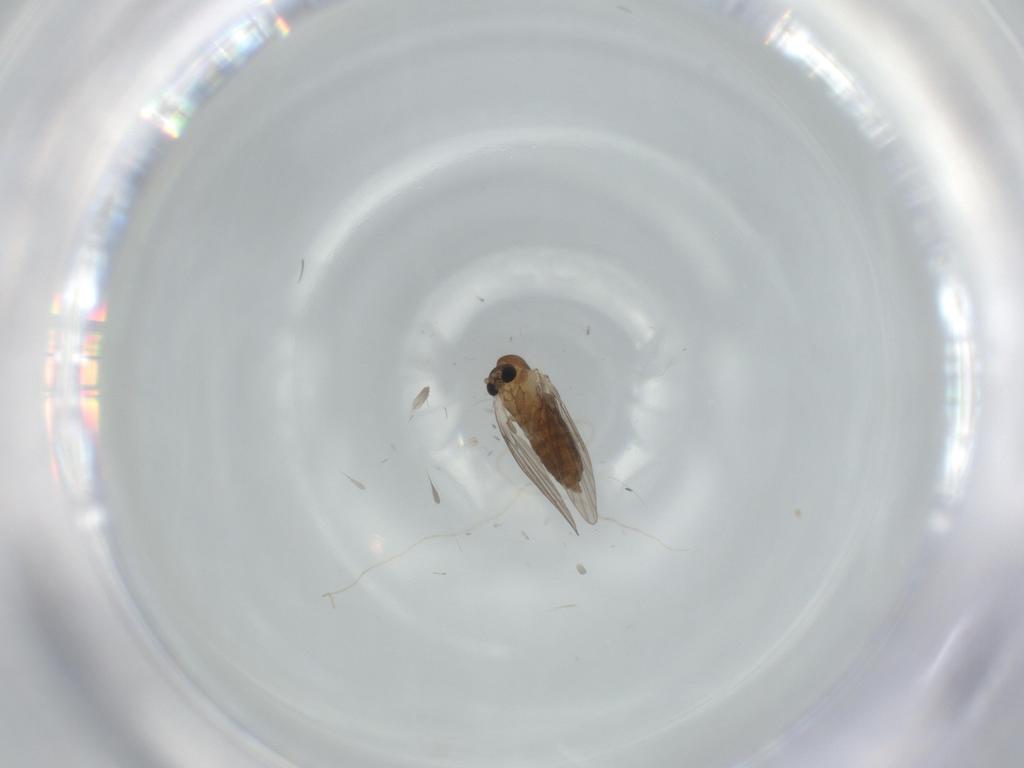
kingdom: Animalia
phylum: Arthropoda
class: Insecta
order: Diptera
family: Psychodidae
